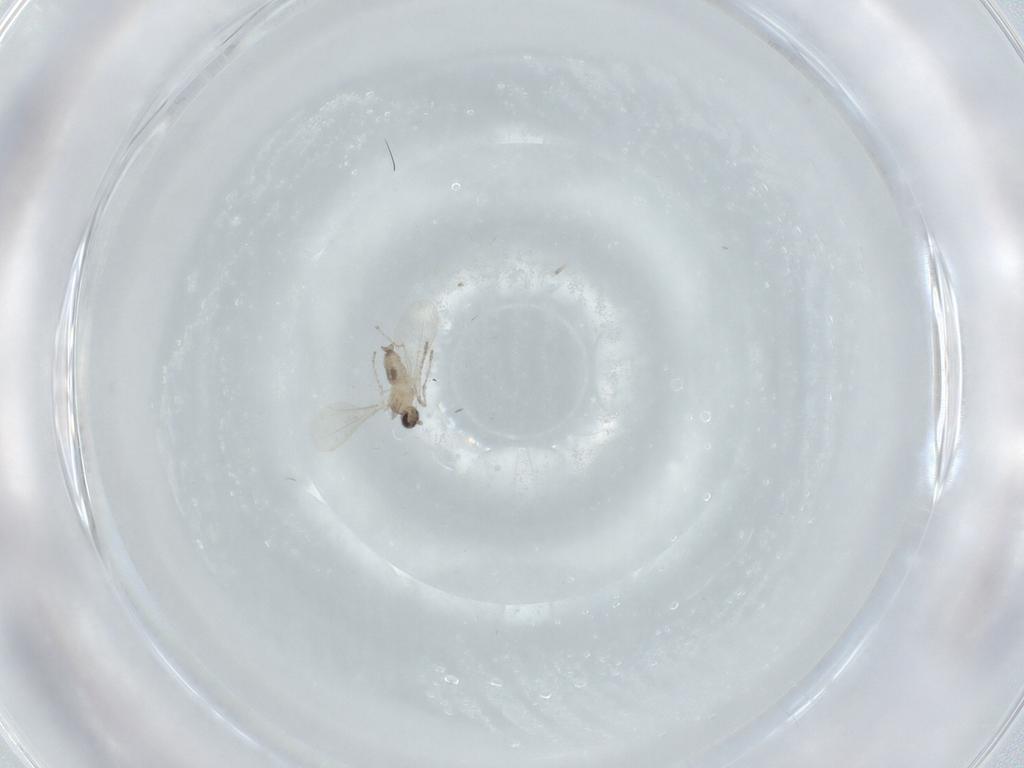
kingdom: Animalia
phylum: Arthropoda
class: Insecta
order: Diptera
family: Cecidomyiidae
